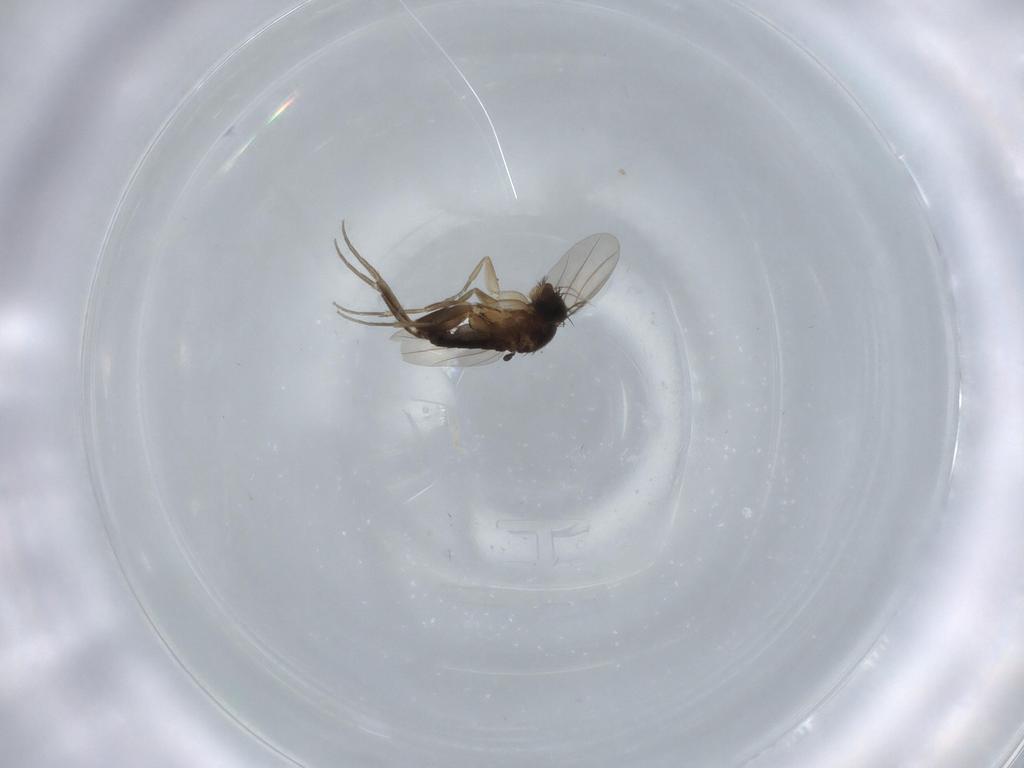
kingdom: Animalia
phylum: Arthropoda
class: Insecta
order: Diptera
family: Phoridae
